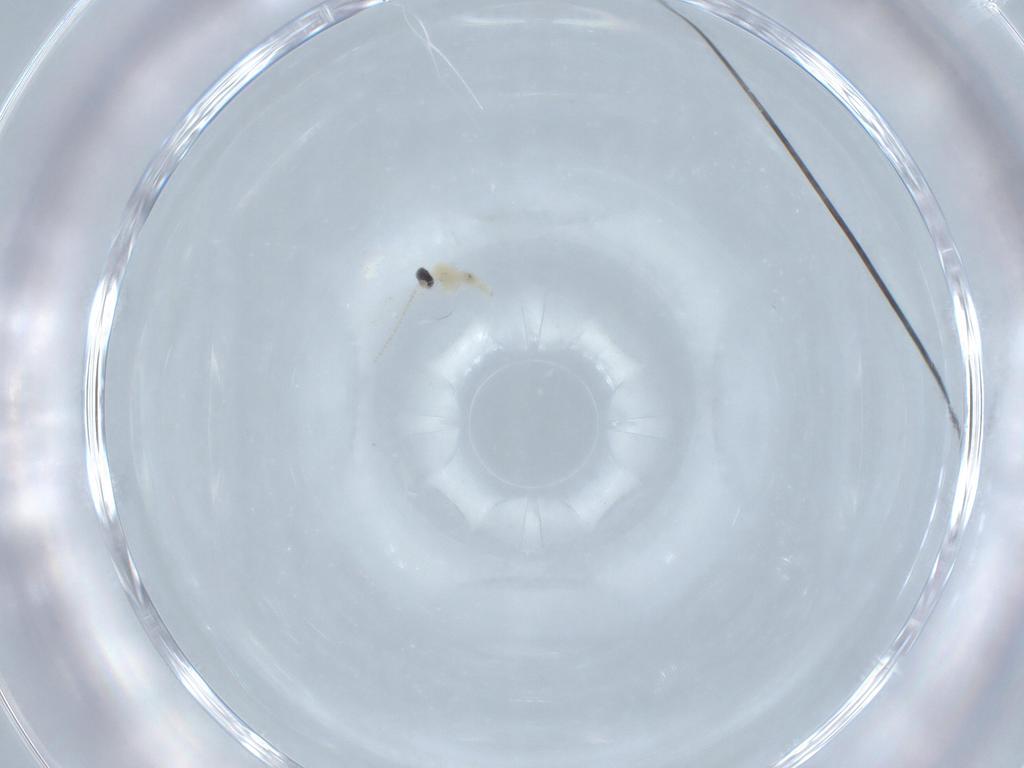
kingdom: Animalia
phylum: Arthropoda
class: Insecta
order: Diptera
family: Cecidomyiidae
